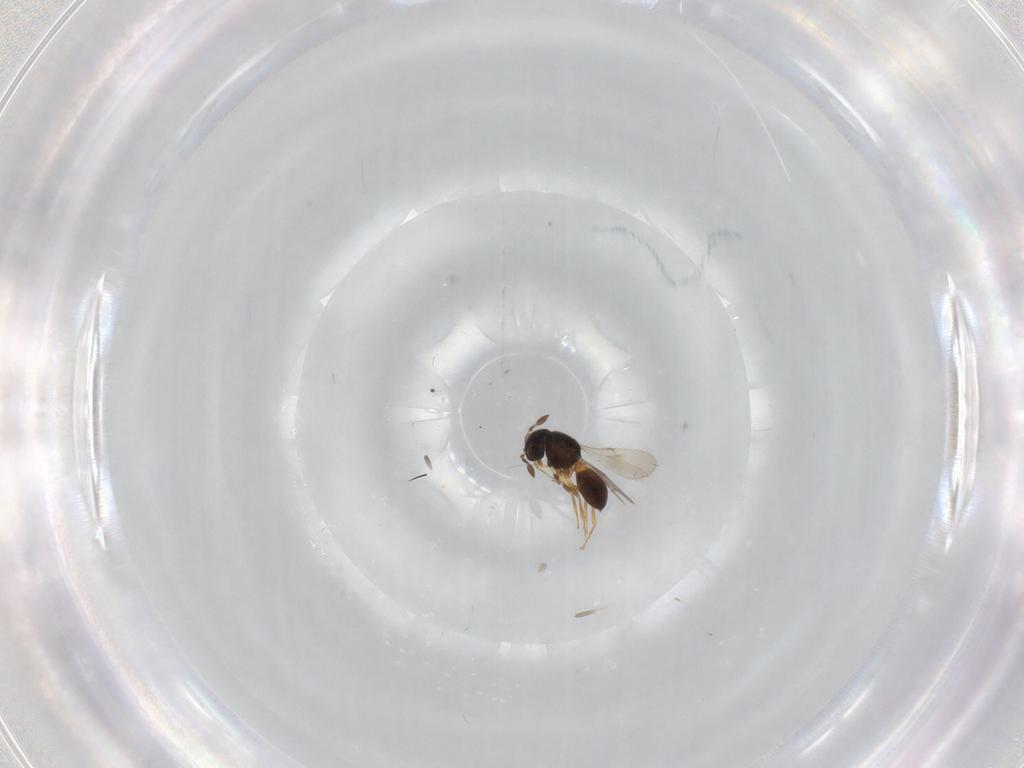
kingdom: Animalia
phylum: Arthropoda
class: Insecta
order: Hymenoptera
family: Scelionidae
